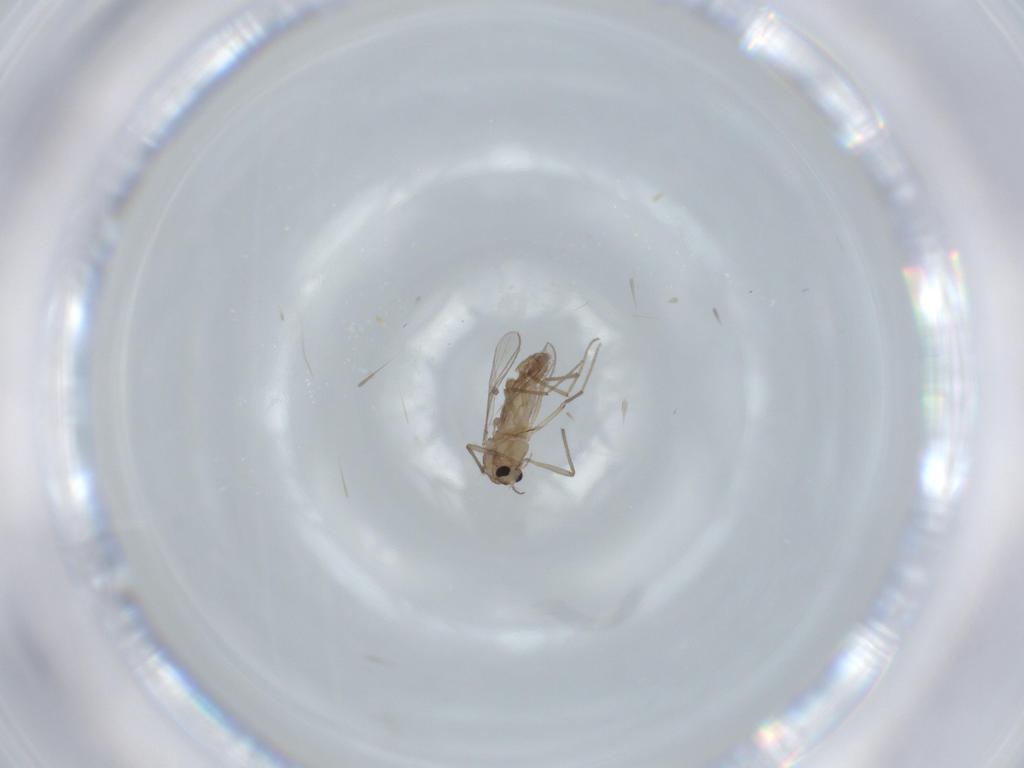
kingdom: Animalia
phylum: Arthropoda
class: Insecta
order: Diptera
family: Chironomidae
